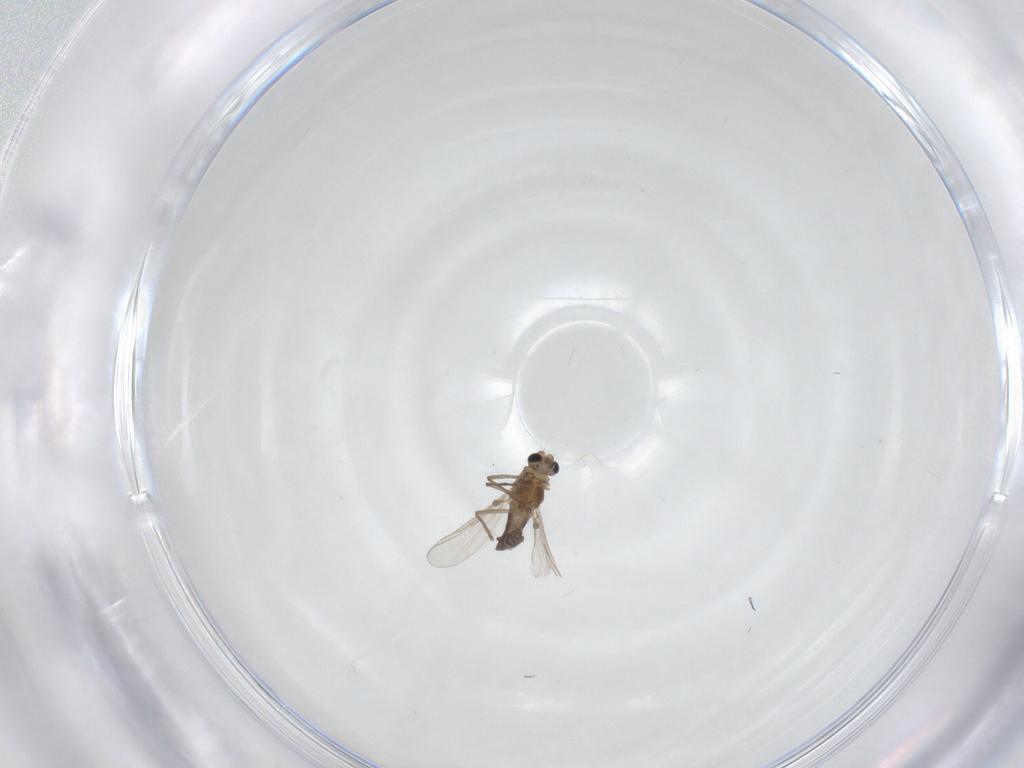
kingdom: Animalia
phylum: Arthropoda
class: Insecta
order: Diptera
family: Chironomidae
